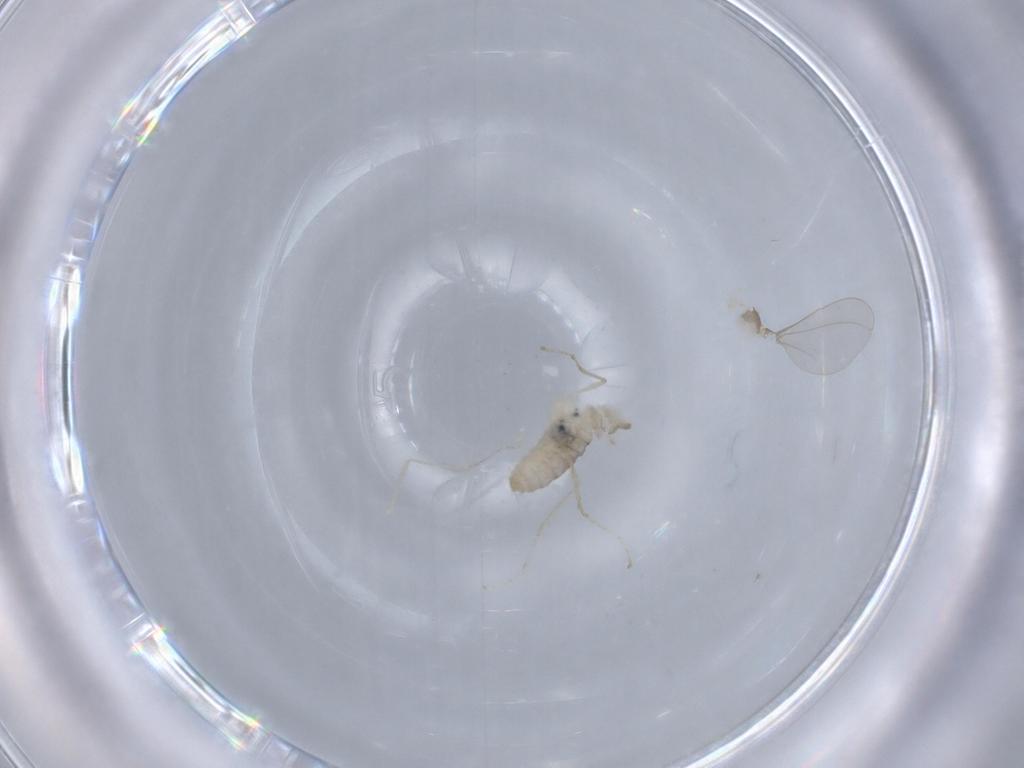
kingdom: Animalia
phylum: Arthropoda
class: Insecta
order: Diptera
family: Cecidomyiidae
